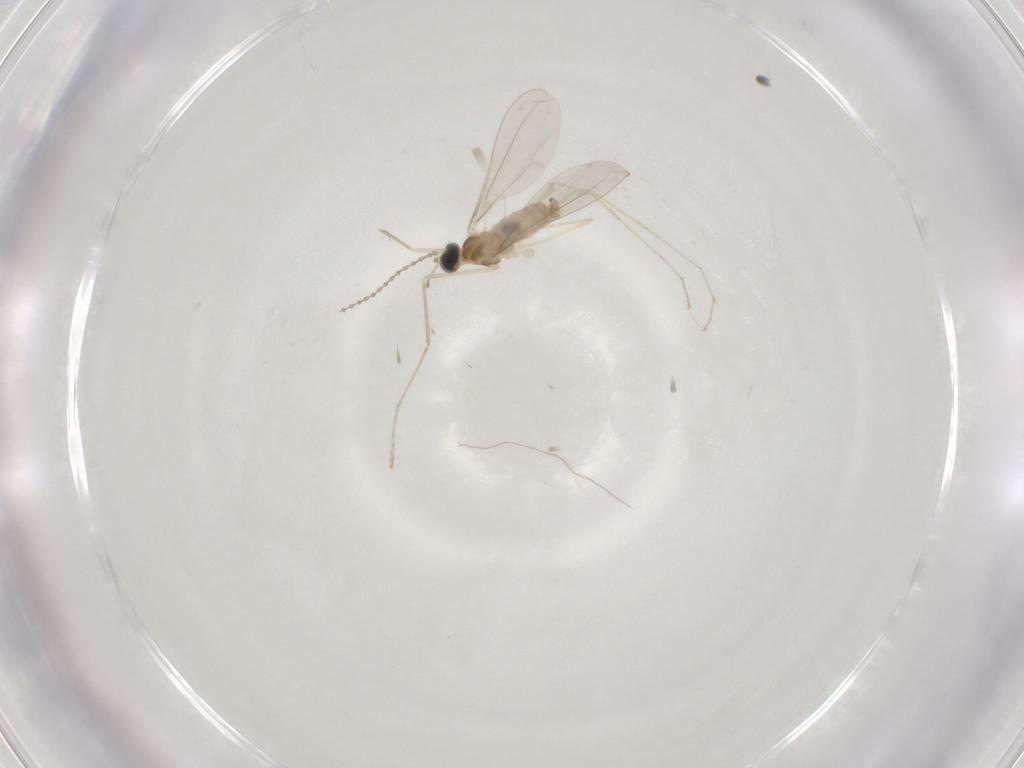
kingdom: Animalia
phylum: Arthropoda
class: Insecta
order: Diptera
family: Cecidomyiidae
